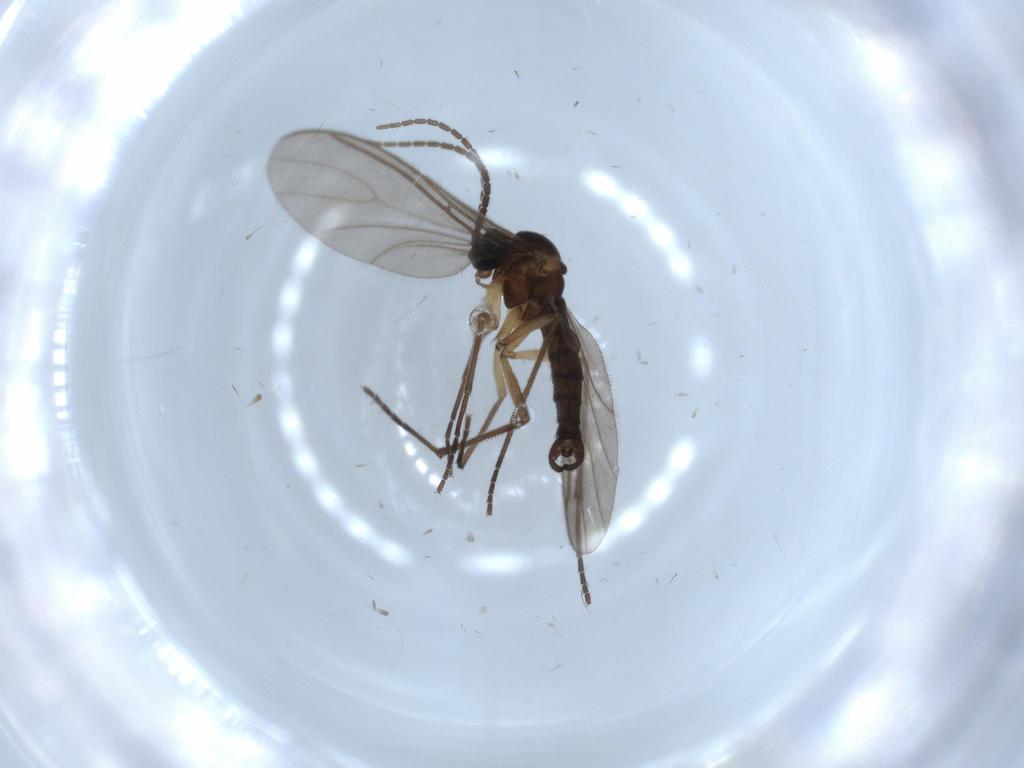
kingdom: Animalia
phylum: Arthropoda
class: Insecta
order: Diptera
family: Sciaridae
